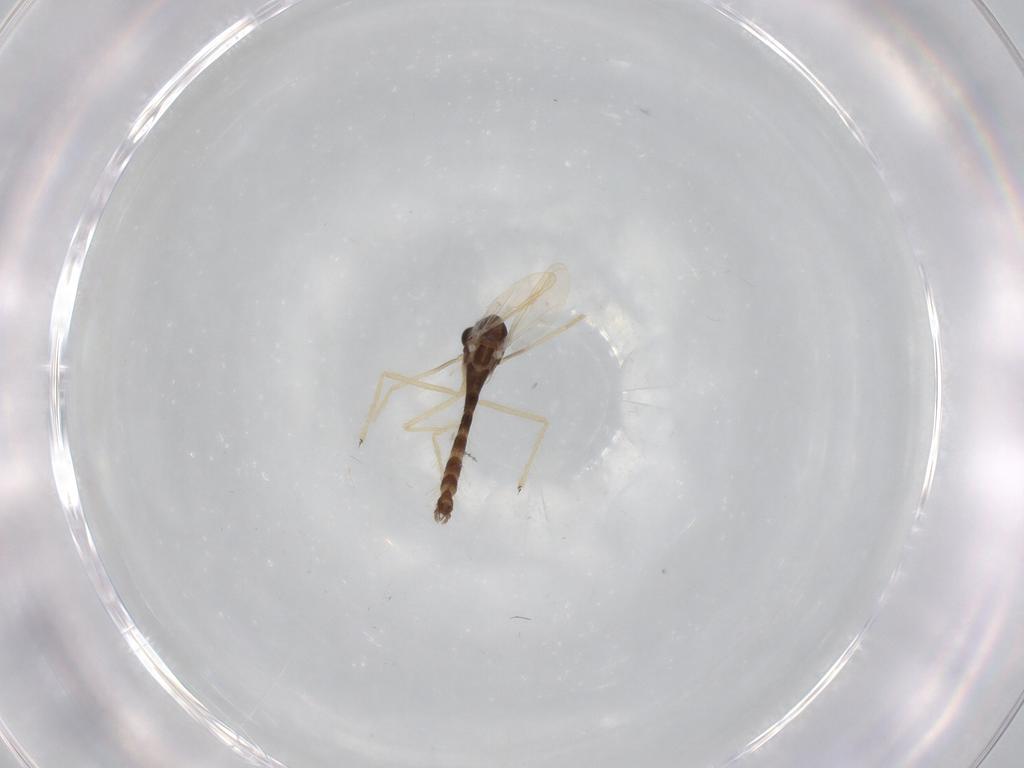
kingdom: Animalia
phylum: Arthropoda
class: Insecta
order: Diptera
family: Chironomidae
